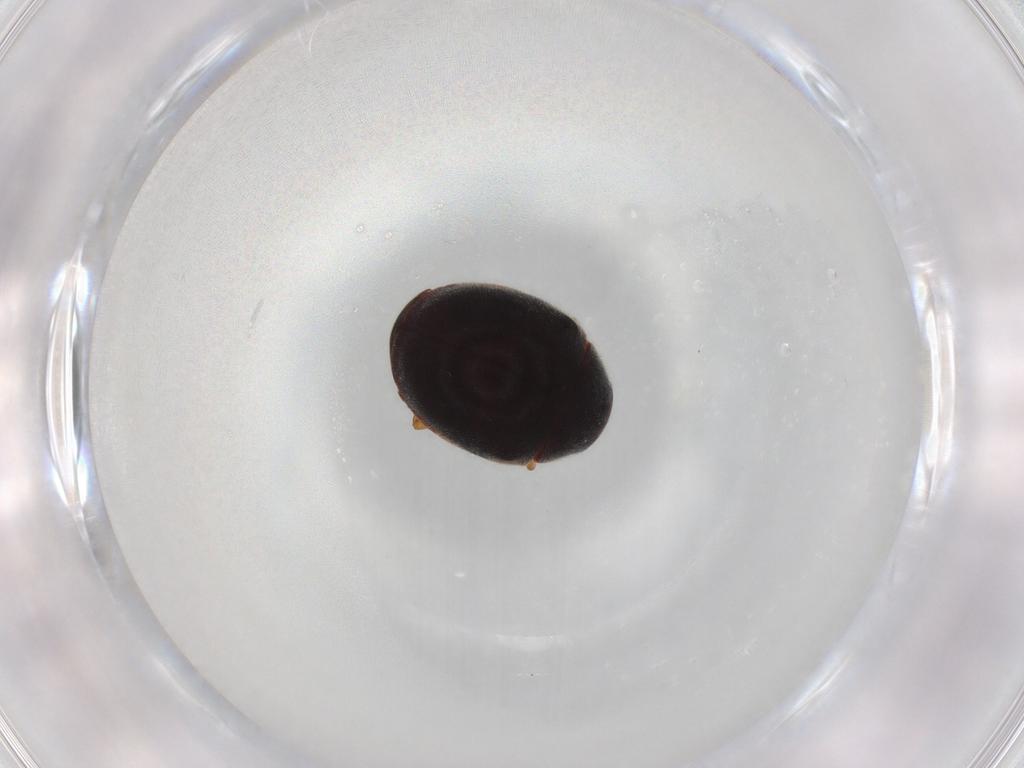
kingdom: Animalia
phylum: Arthropoda
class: Insecta
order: Coleoptera
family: Coccinellidae
